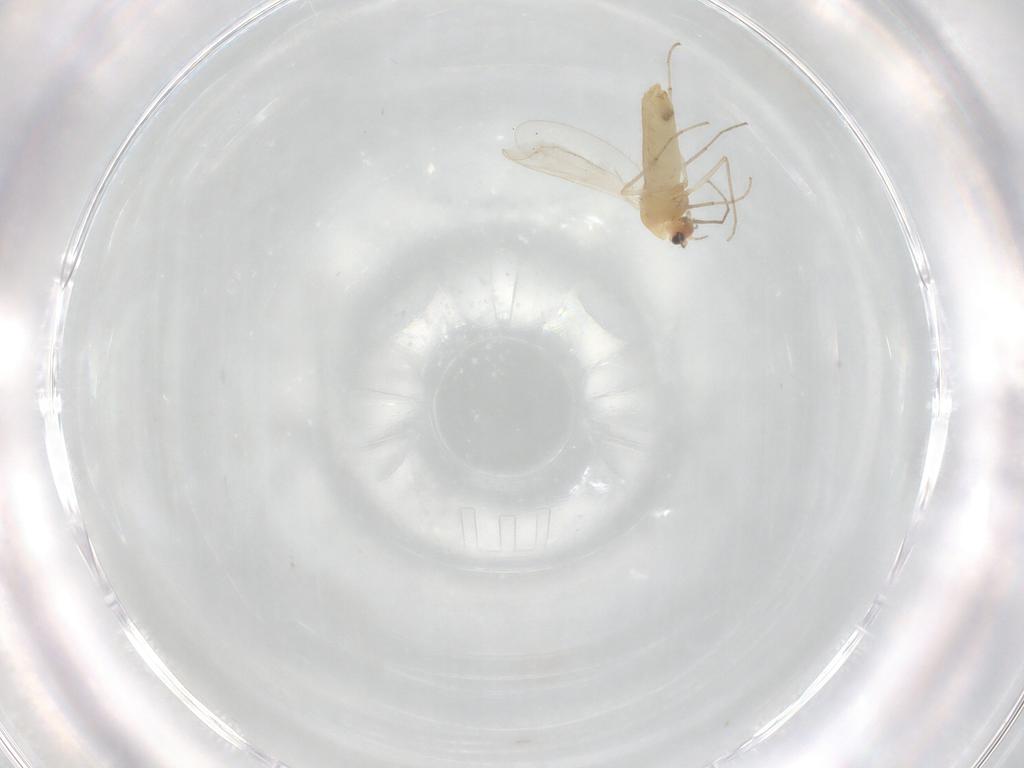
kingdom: Animalia
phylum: Arthropoda
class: Insecta
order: Diptera
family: Chironomidae
